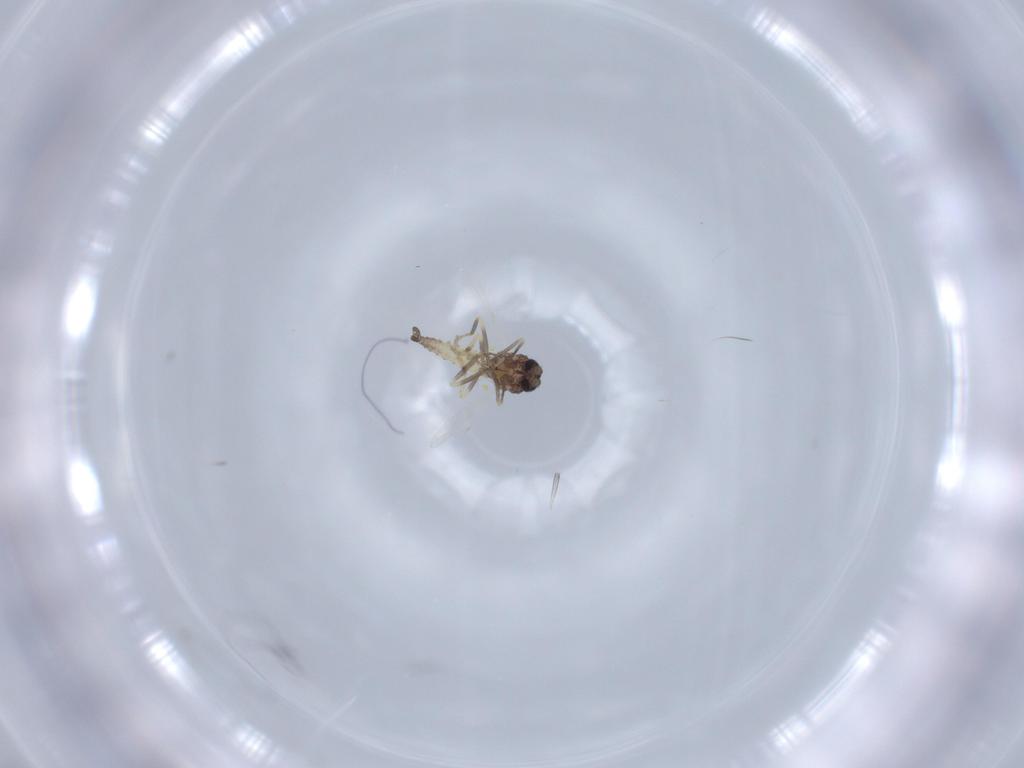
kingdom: Animalia
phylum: Arthropoda
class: Insecta
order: Diptera
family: Ceratopogonidae
